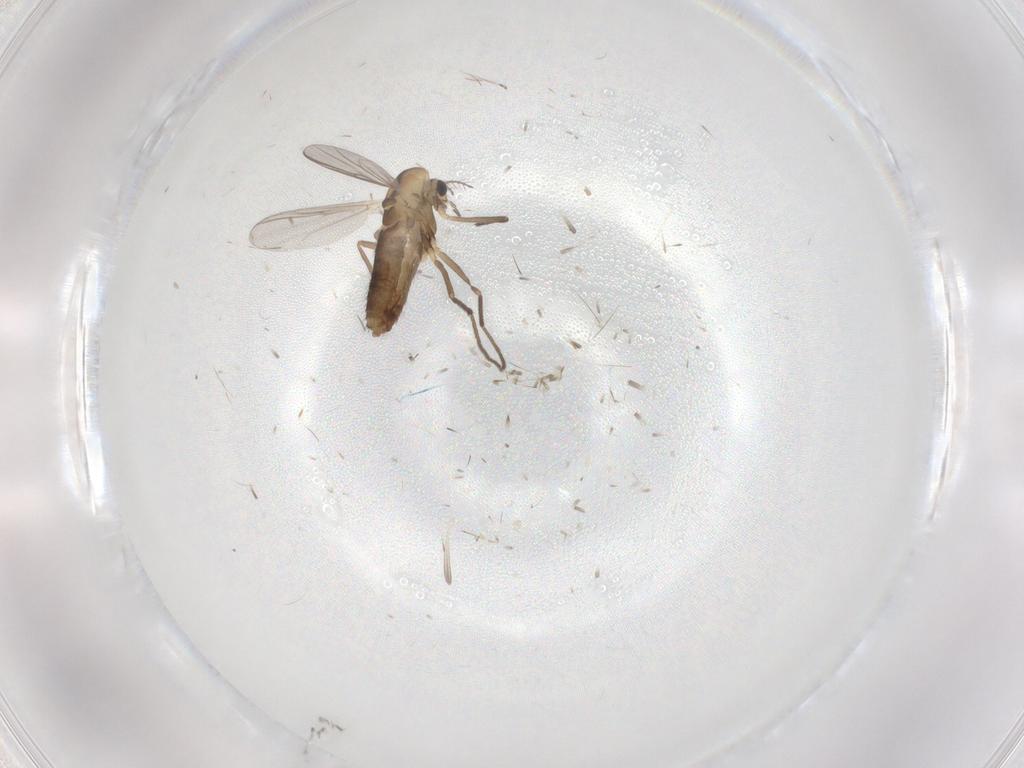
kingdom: Animalia
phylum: Arthropoda
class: Insecta
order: Diptera
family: Chironomidae
